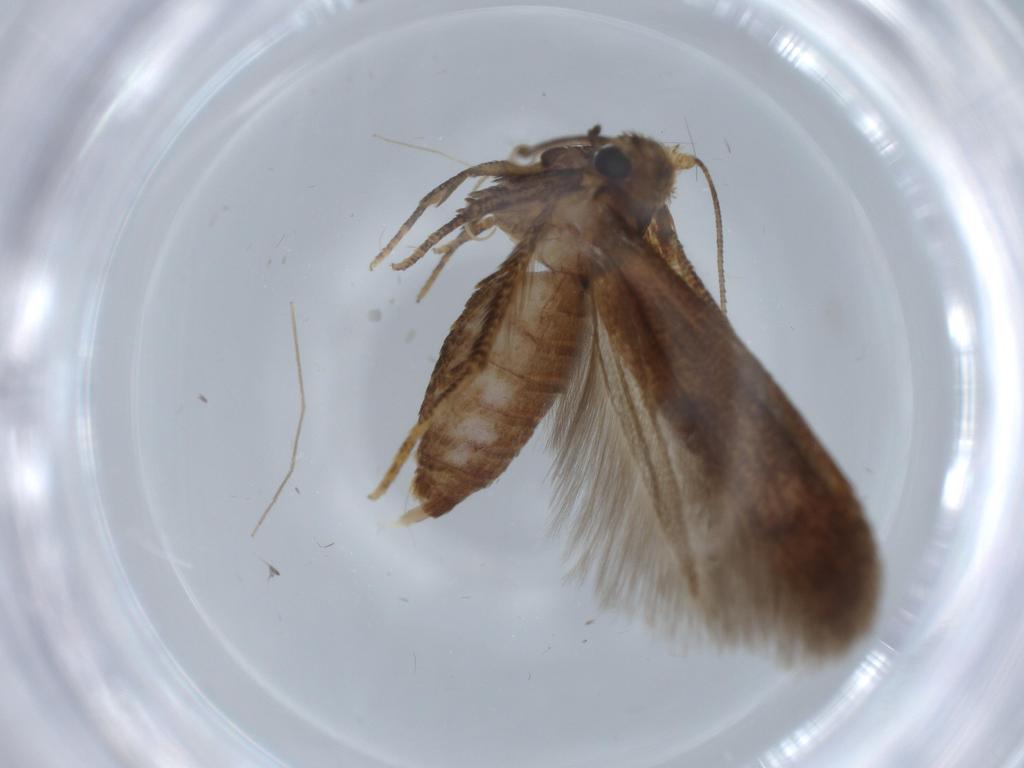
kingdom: Animalia
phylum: Arthropoda
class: Insecta
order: Lepidoptera
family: Blastobasidae
